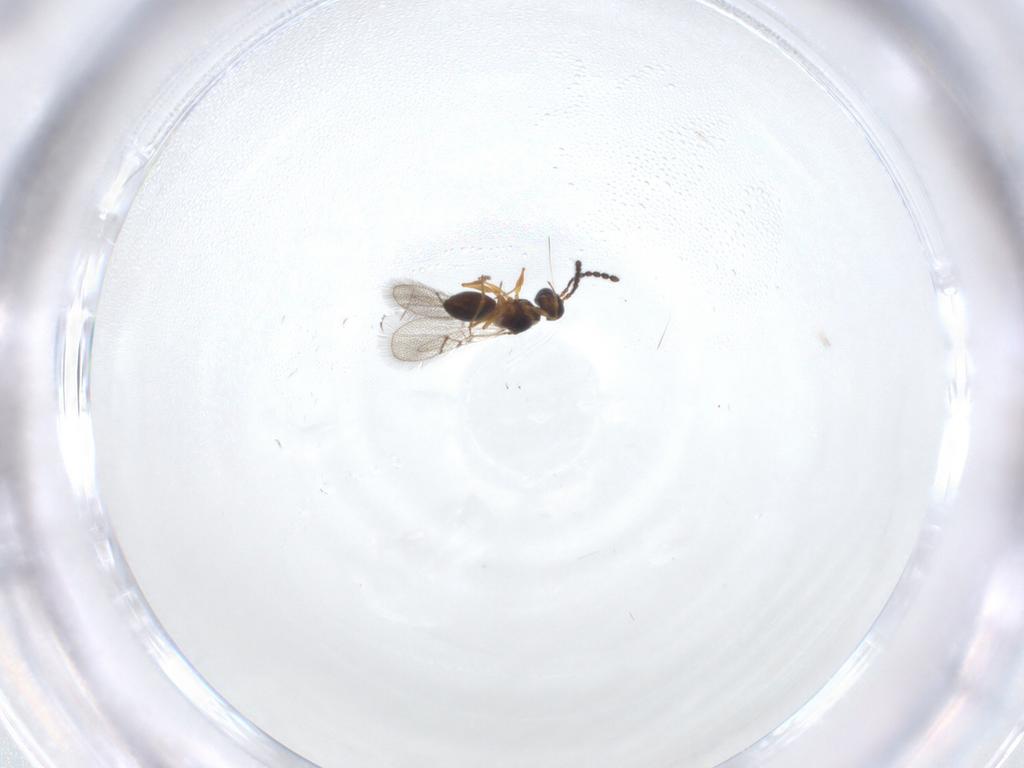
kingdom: Animalia
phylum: Arthropoda
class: Insecta
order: Hymenoptera
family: Figitidae
